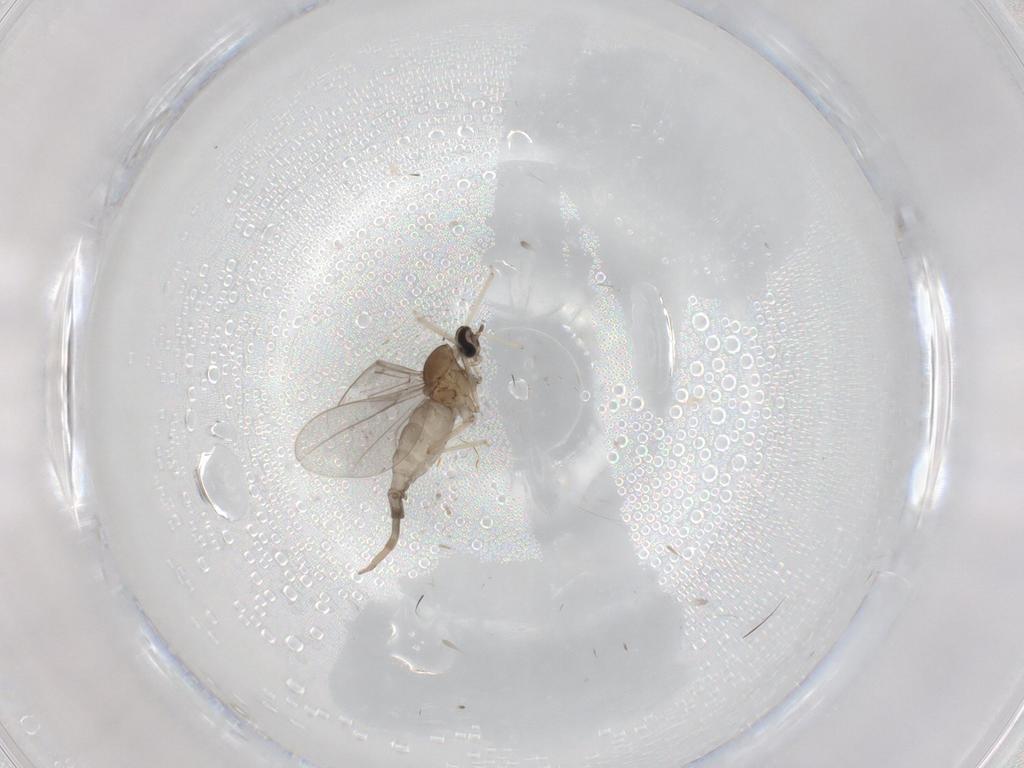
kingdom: Animalia
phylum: Arthropoda
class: Insecta
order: Diptera
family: Cecidomyiidae
